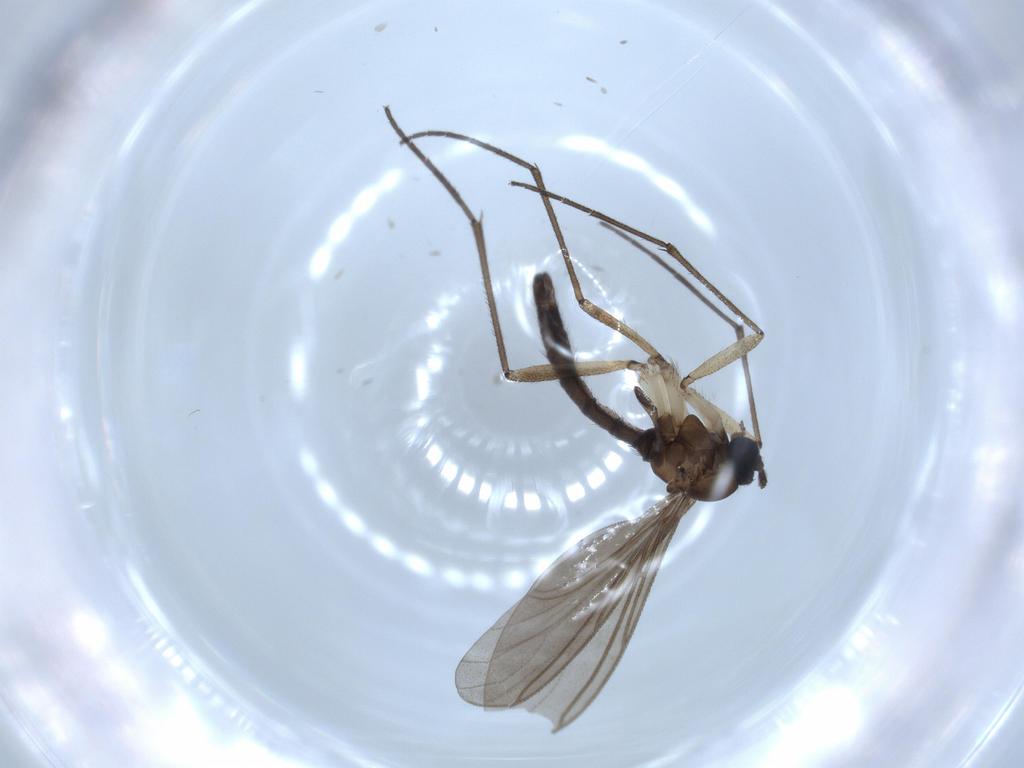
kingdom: Animalia
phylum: Arthropoda
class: Insecta
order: Diptera
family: Sciaridae
